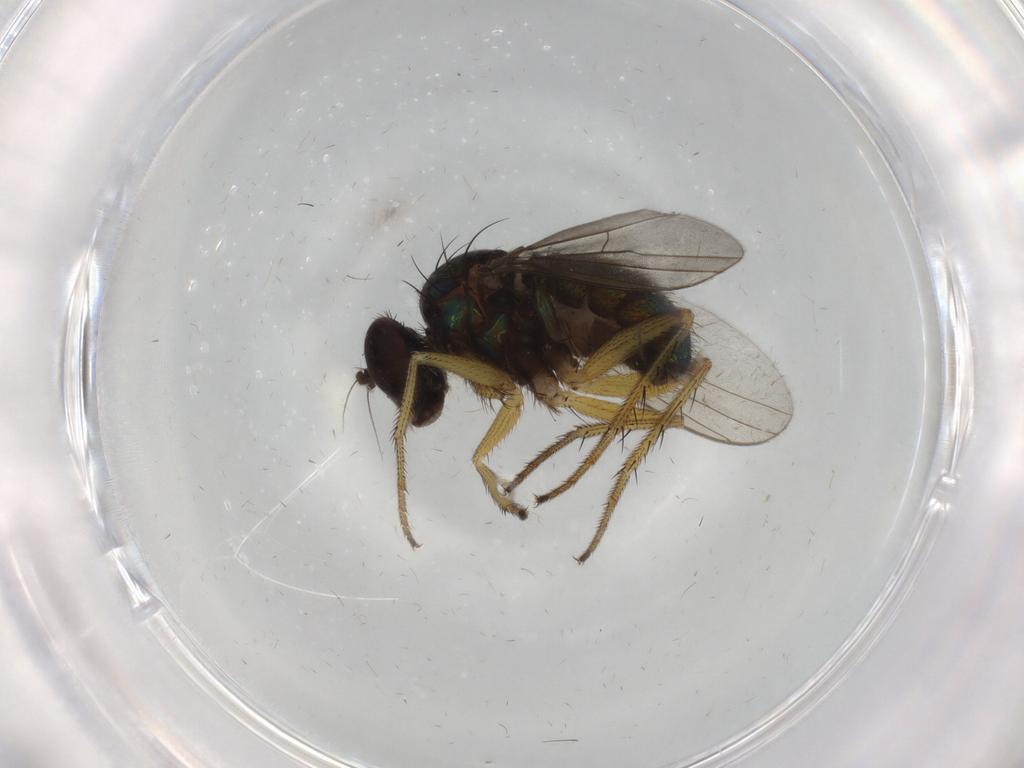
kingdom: Animalia
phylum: Arthropoda
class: Insecta
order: Diptera
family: Dolichopodidae
